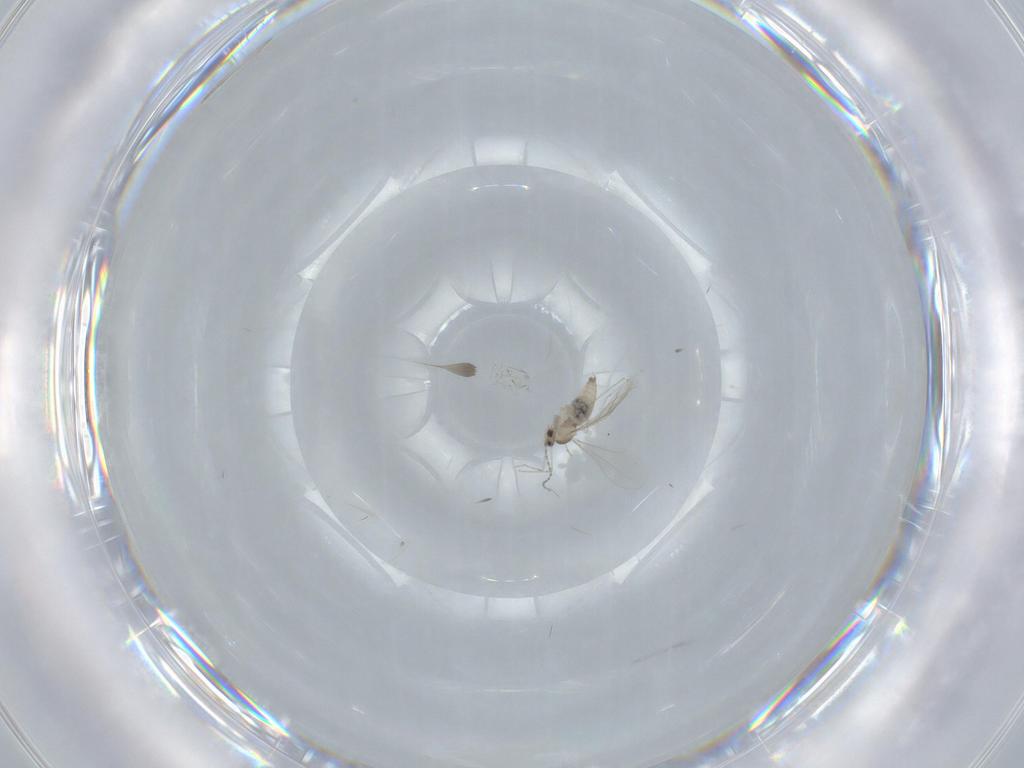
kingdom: Animalia
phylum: Arthropoda
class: Insecta
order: Diptera
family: Cecidomyiidae
